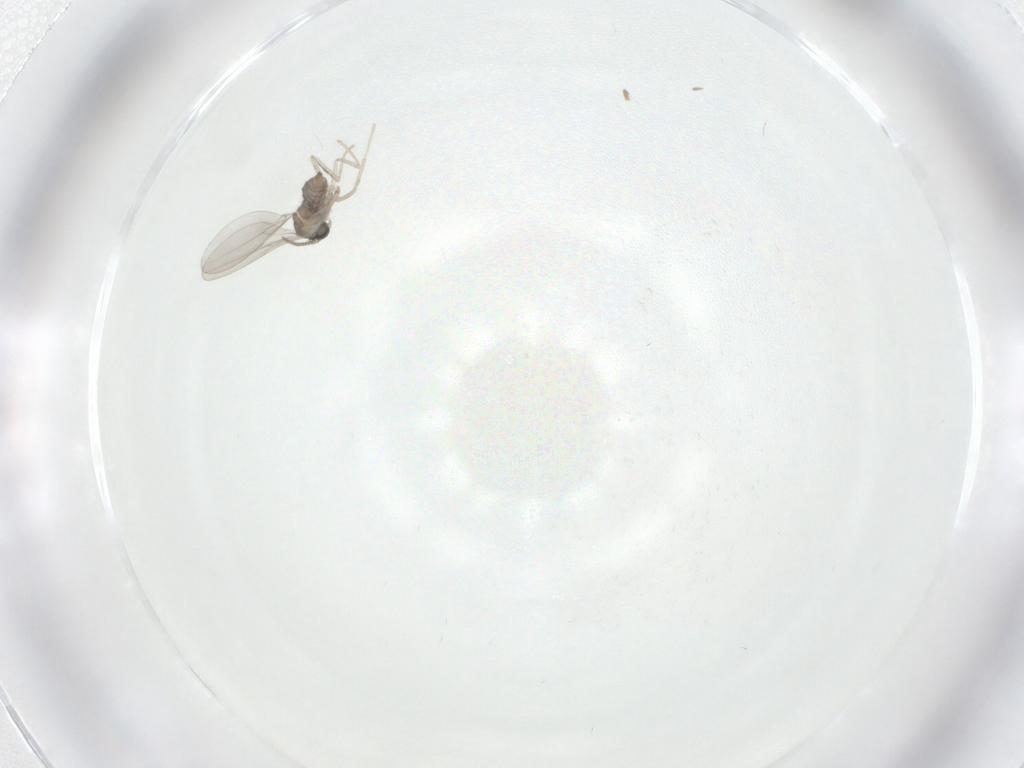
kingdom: Animalia
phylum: Arthropoda
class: Insecta
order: Diptera
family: Cecidomyiidae
